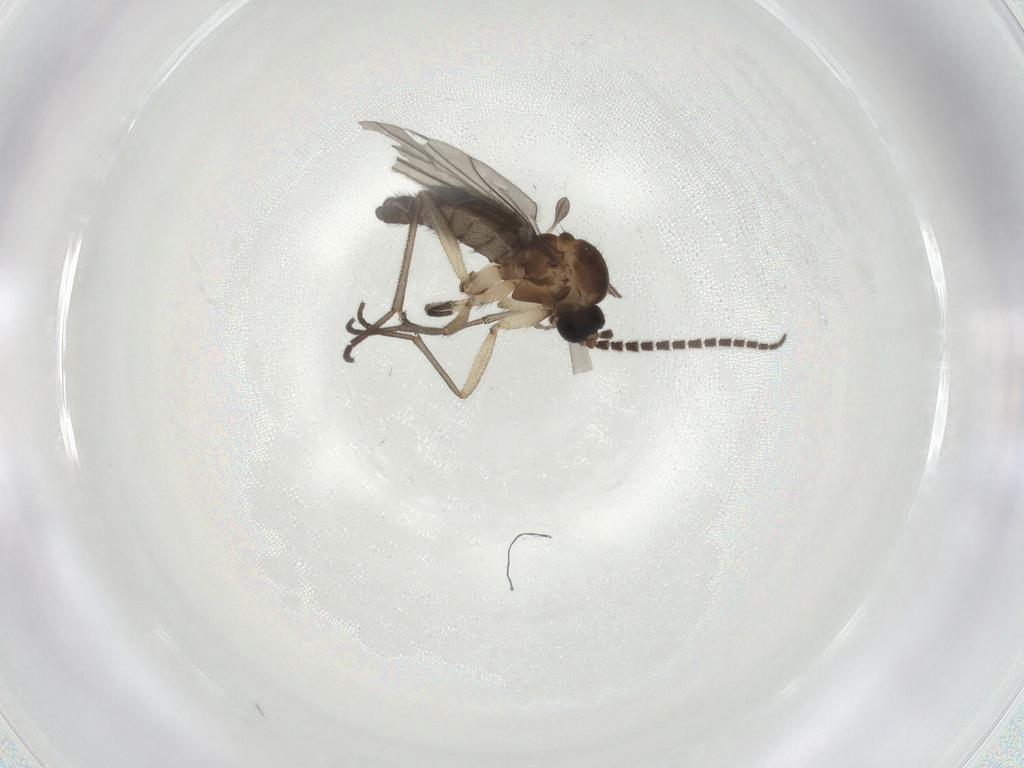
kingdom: Animalia
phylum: Arthropoda
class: Insecta
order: Diptera
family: Sciaridae
